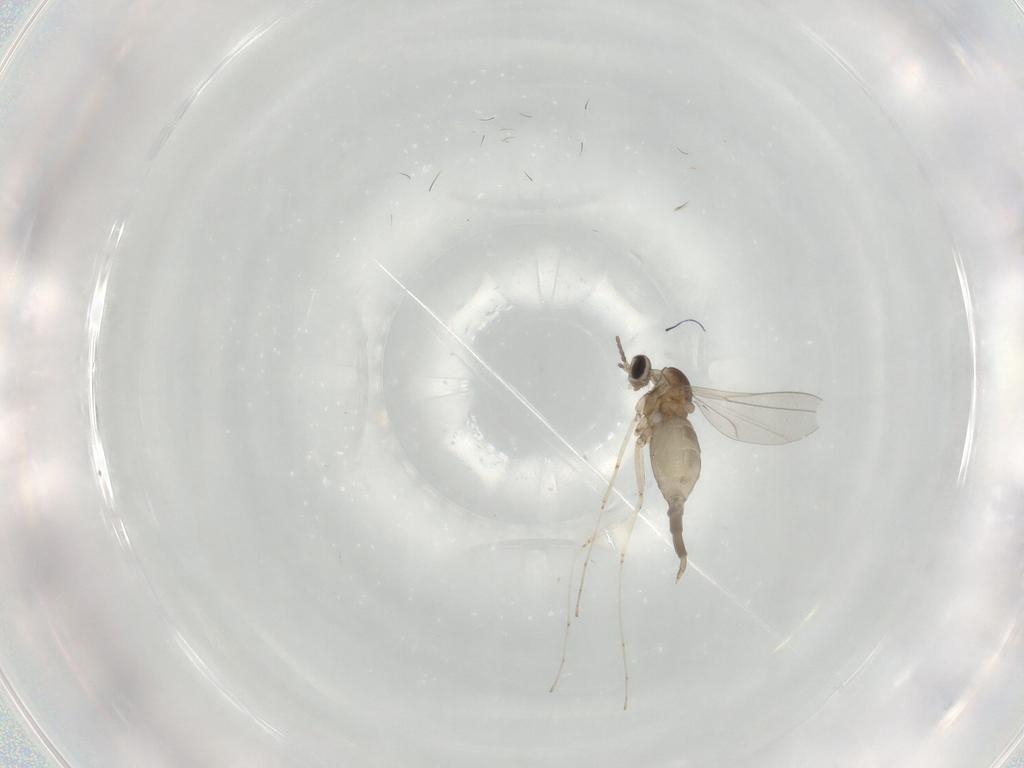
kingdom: Animalia
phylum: Arthropoda
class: Insecta
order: Diptera
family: Cecidomyiidae
